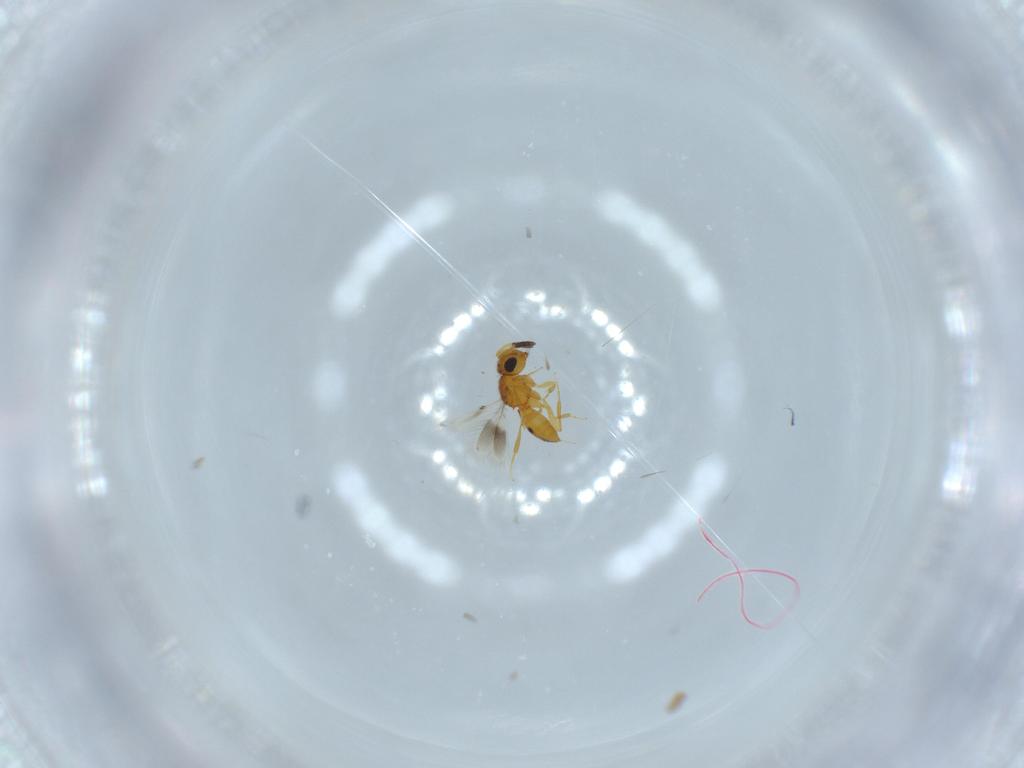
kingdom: Animalia
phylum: Arthropoda
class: Insecta
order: Hymenoptera
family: Scelionidae
